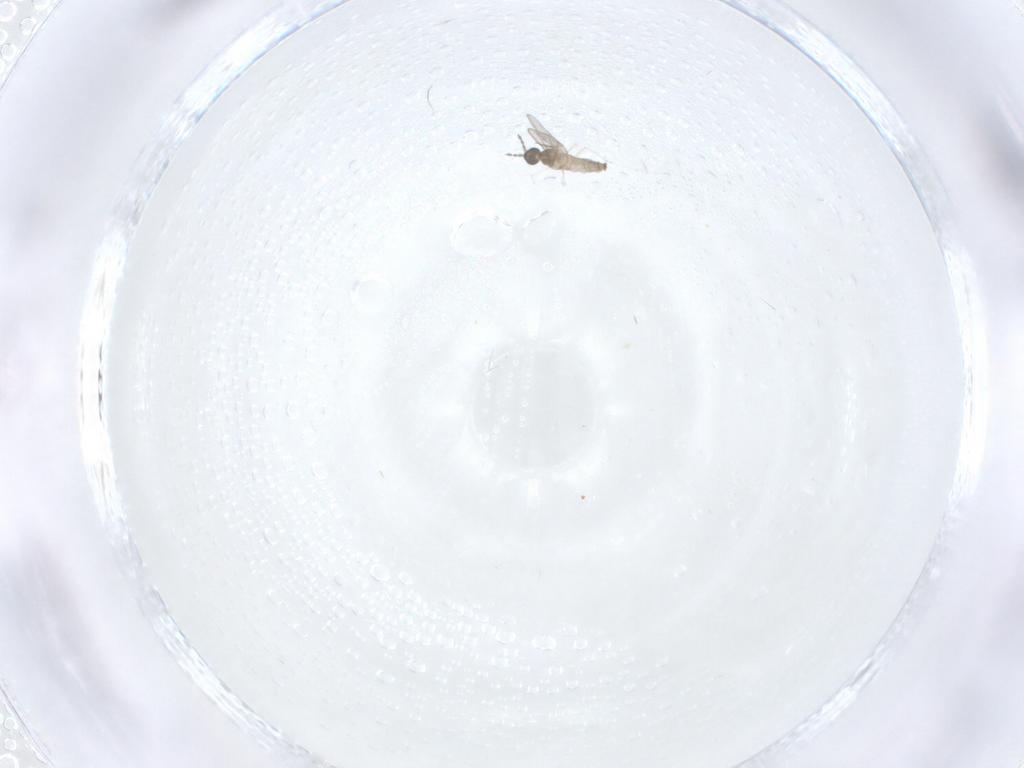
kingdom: Animalia
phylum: Arthropoda
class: Insecta
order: Diptera
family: Cecidomyiidae
